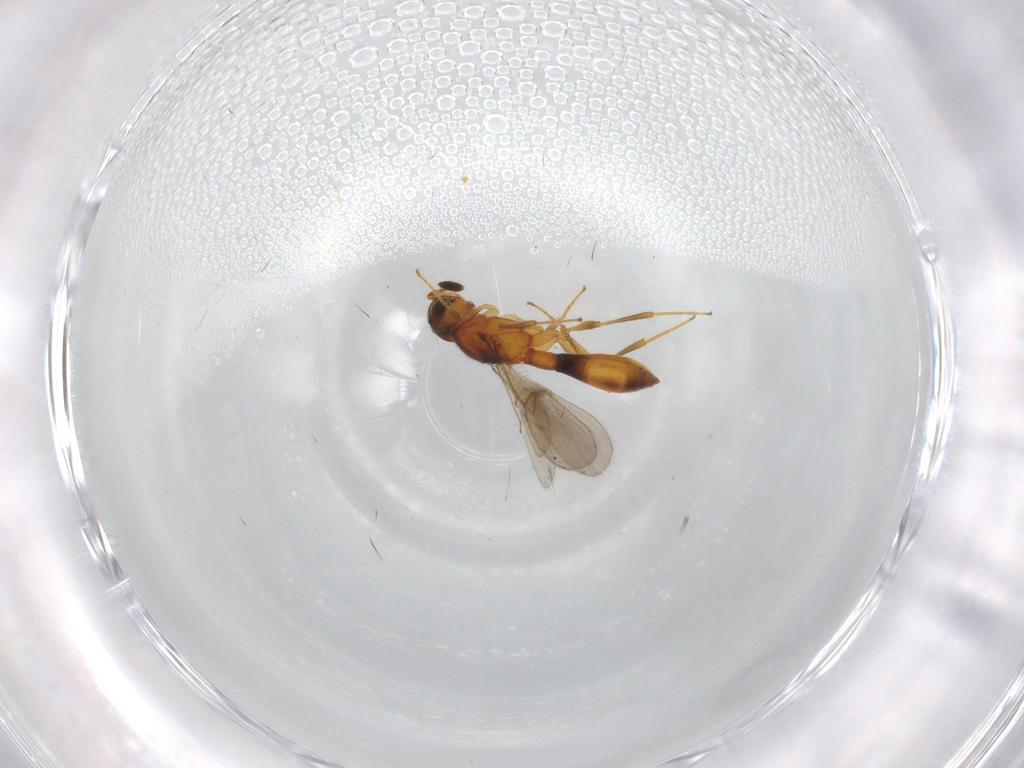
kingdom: Animalia
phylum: Arthropoda
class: Insecta
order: Hymenoptera
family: Scelionidae
